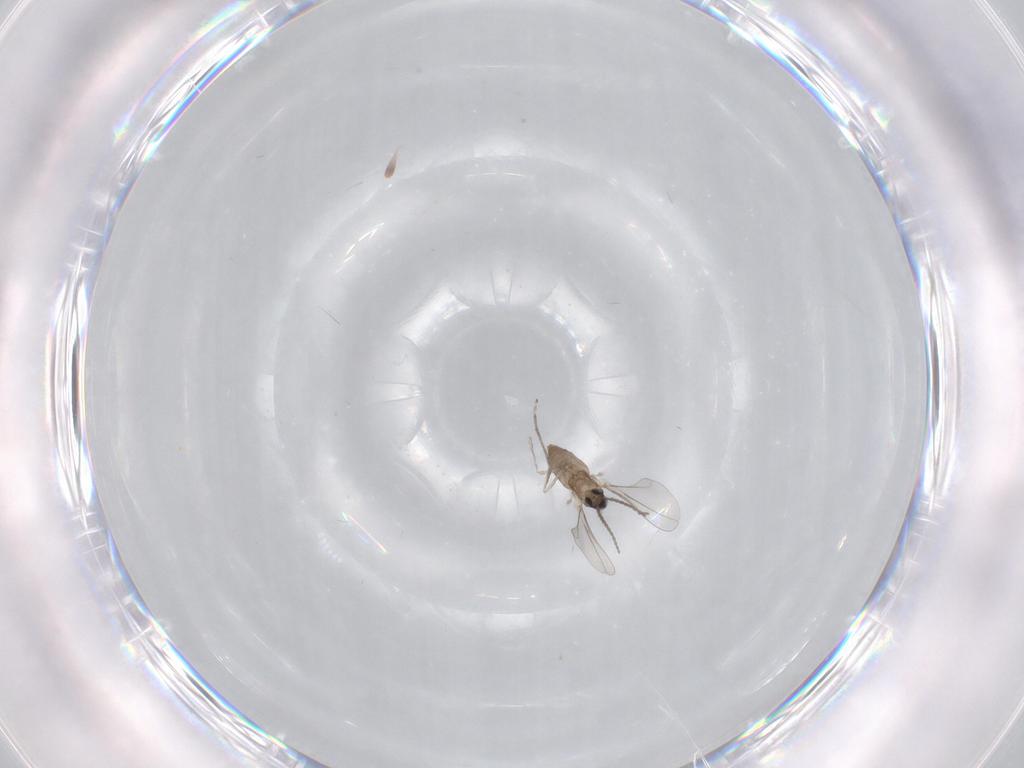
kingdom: Animalia
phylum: Arthropoda
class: Insecta
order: Diptera
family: Cecidomyiidae
